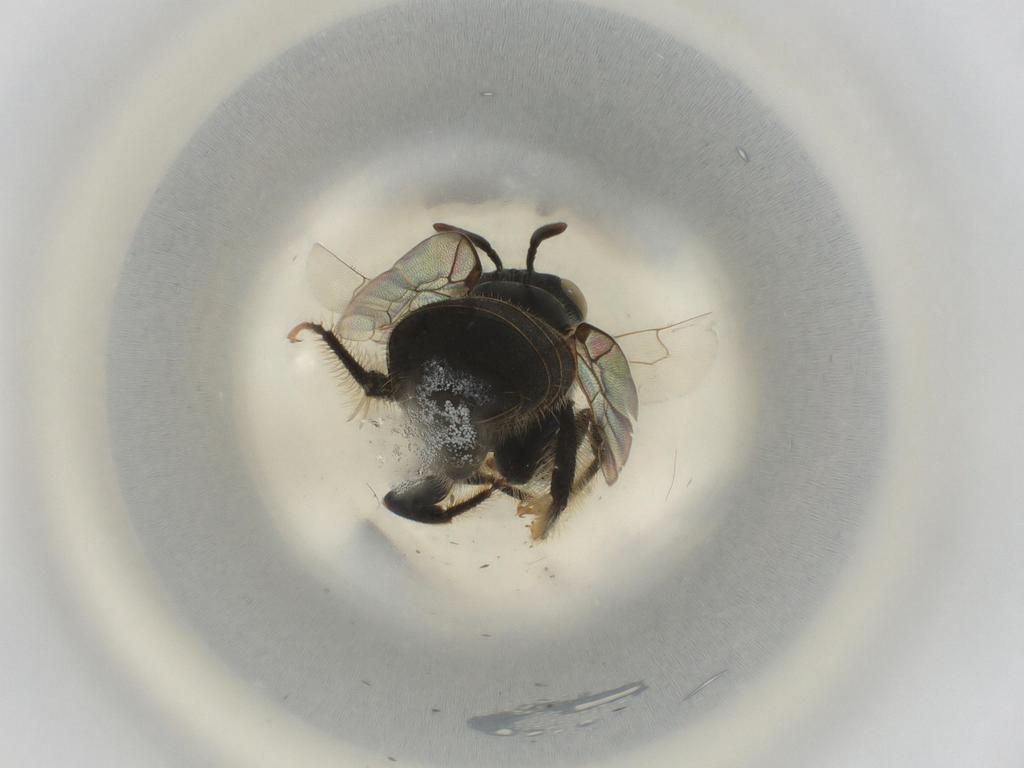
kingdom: Animalia
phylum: Arthropoda
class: Insecta
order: Hymenoptera
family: Apidae
